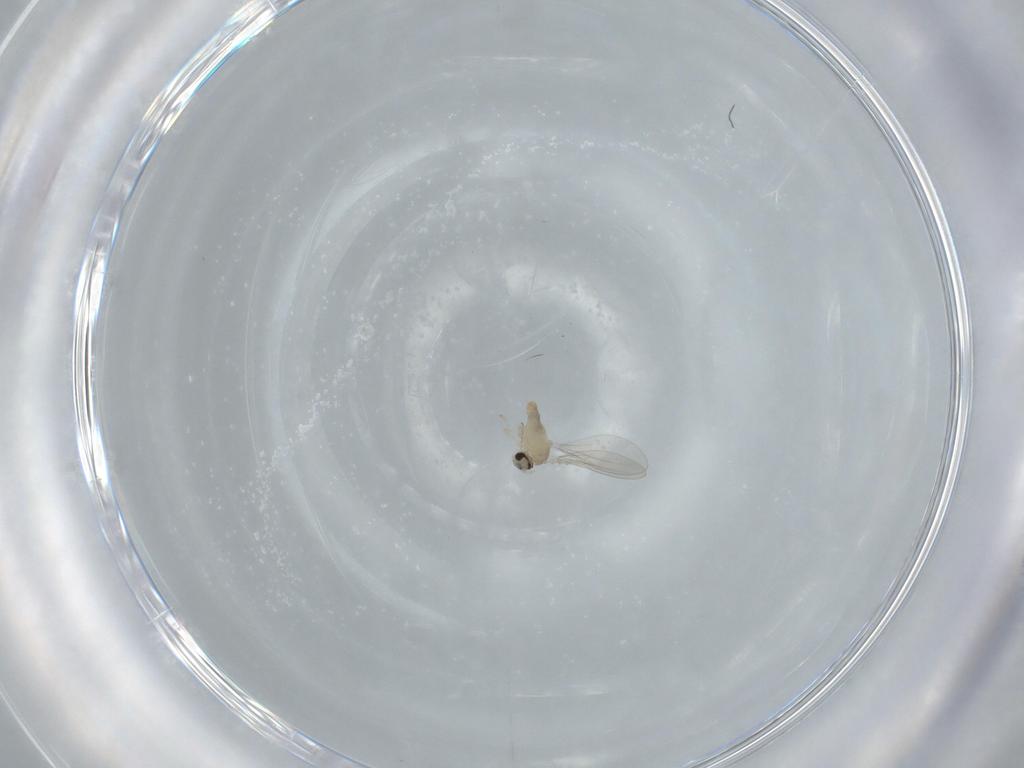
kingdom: Animalia
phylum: Arthropoda
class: Insecta
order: Diptera
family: Cecidomyiidae
